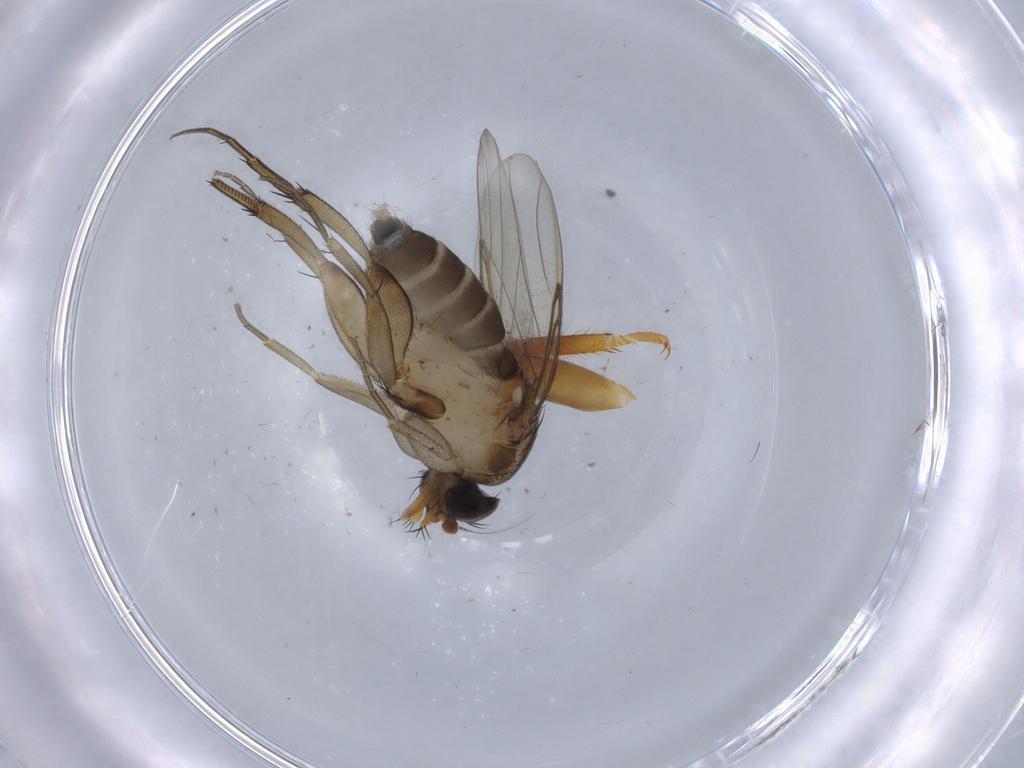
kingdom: Animalia
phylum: Arthropoda
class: Insecta
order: Diptera
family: Phoridae
